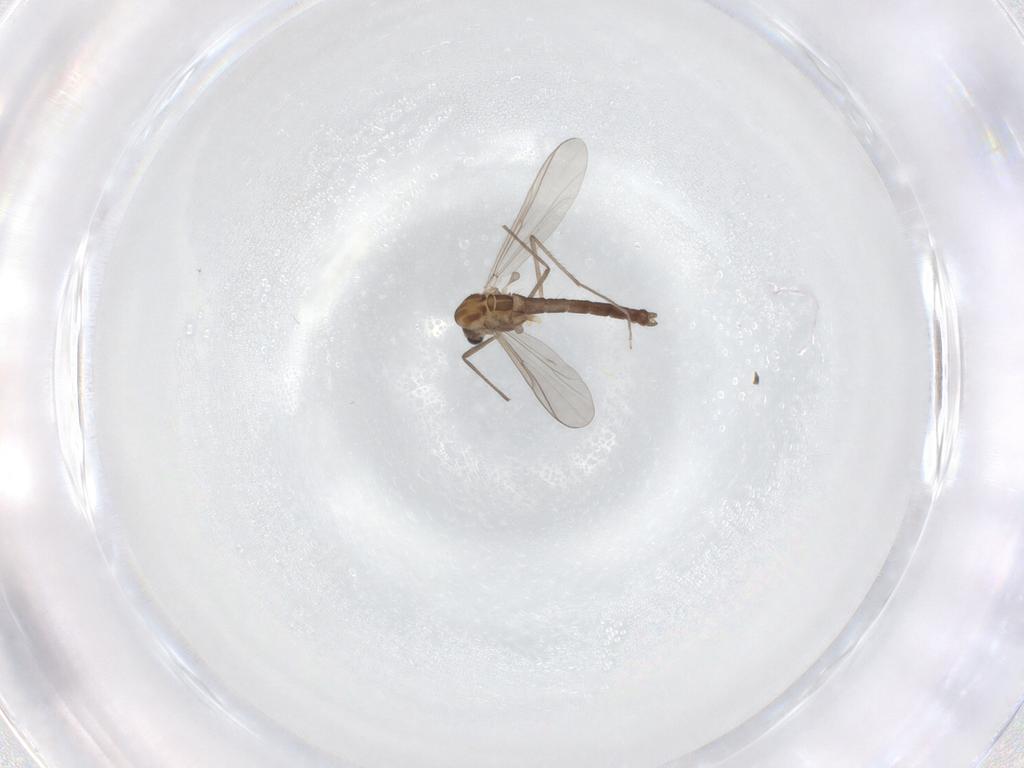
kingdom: Animalia
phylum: Arthropoda
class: Insecta
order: Diptera
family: Chironomidae
